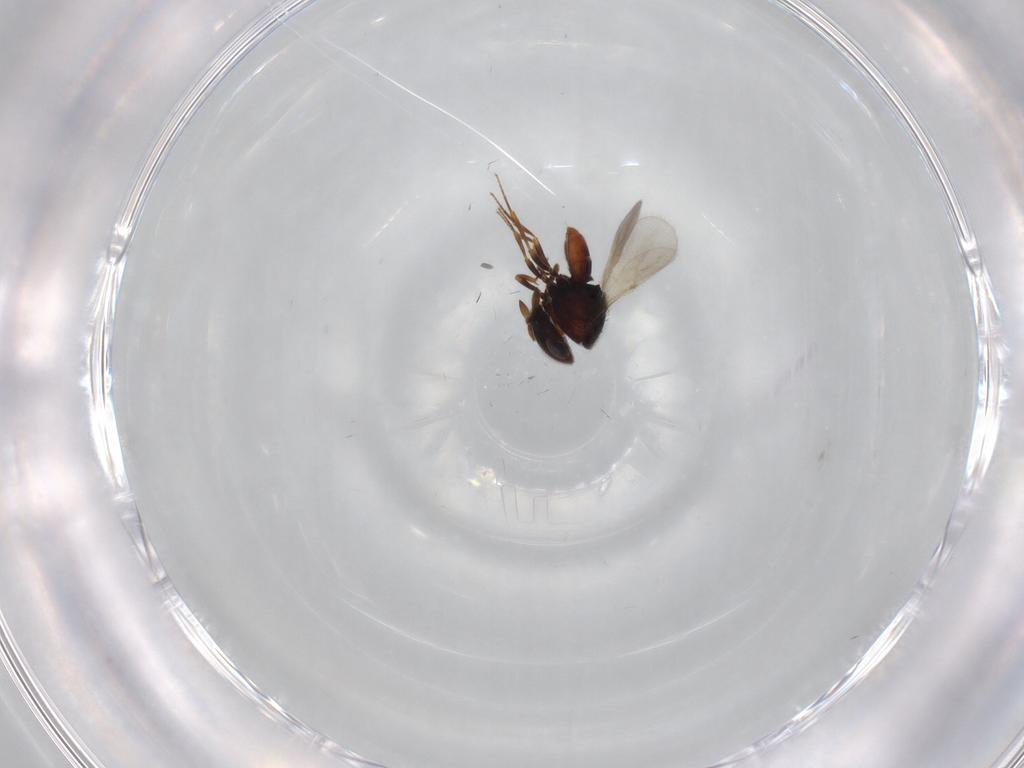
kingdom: Animalia
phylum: Arthropoda
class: Insecta
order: Hymenoptera
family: Scelionidae
